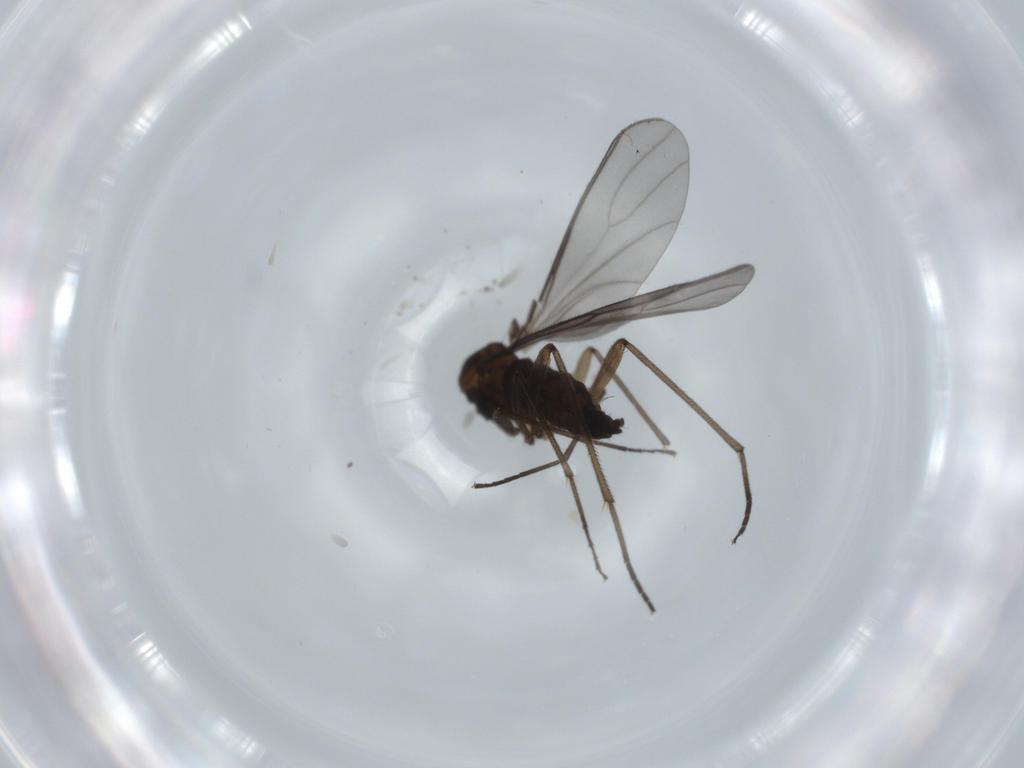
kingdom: Animalia
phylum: Arthropoda
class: Insecta
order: Diptera
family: Sciaridae
